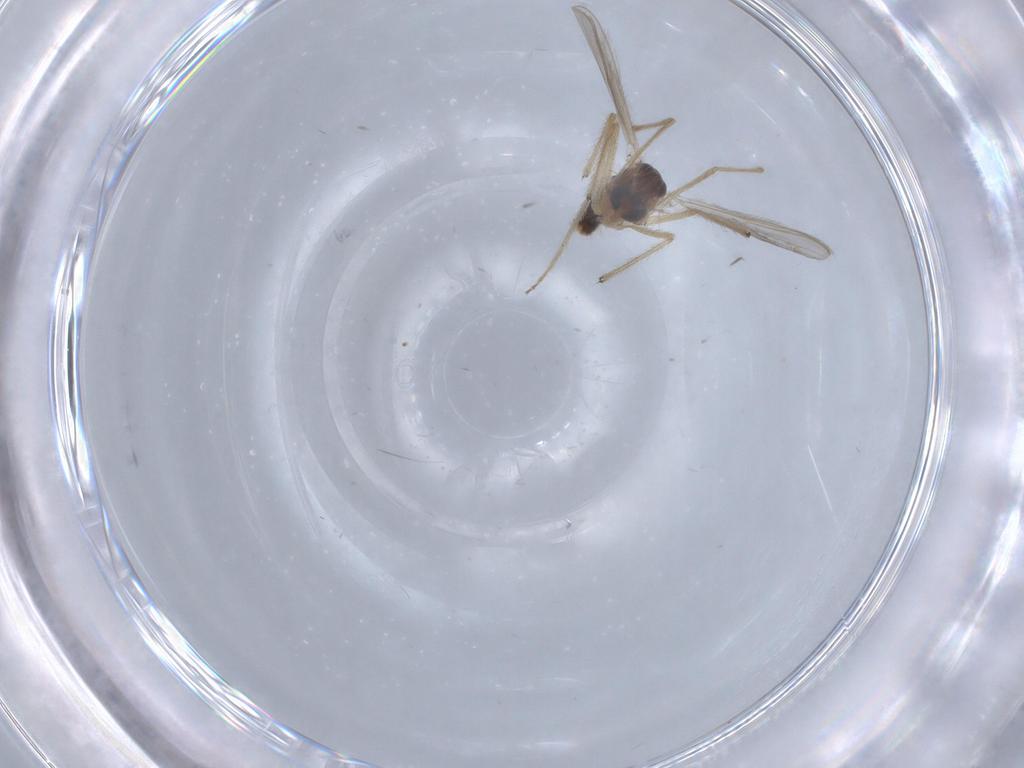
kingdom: Animalia
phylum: Arthropoda
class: Insecta
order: Diptera
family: Chironomidae
